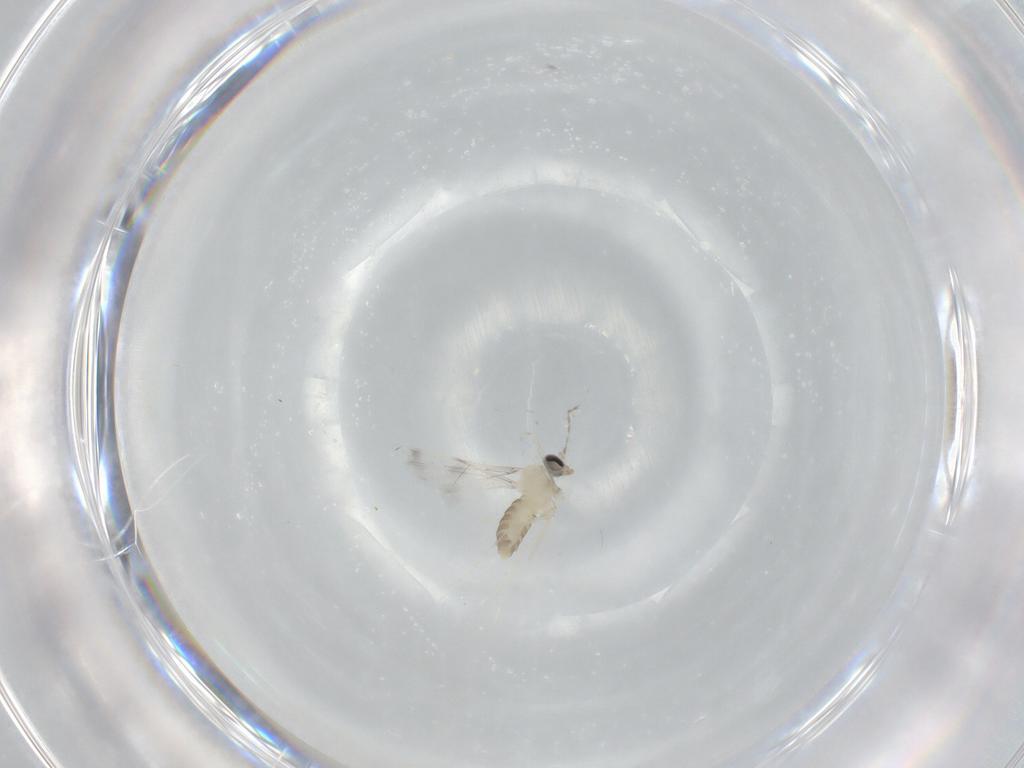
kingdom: Animalia
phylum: Arthropoda
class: Insecta
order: Diptera
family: Cecidomyiidae
